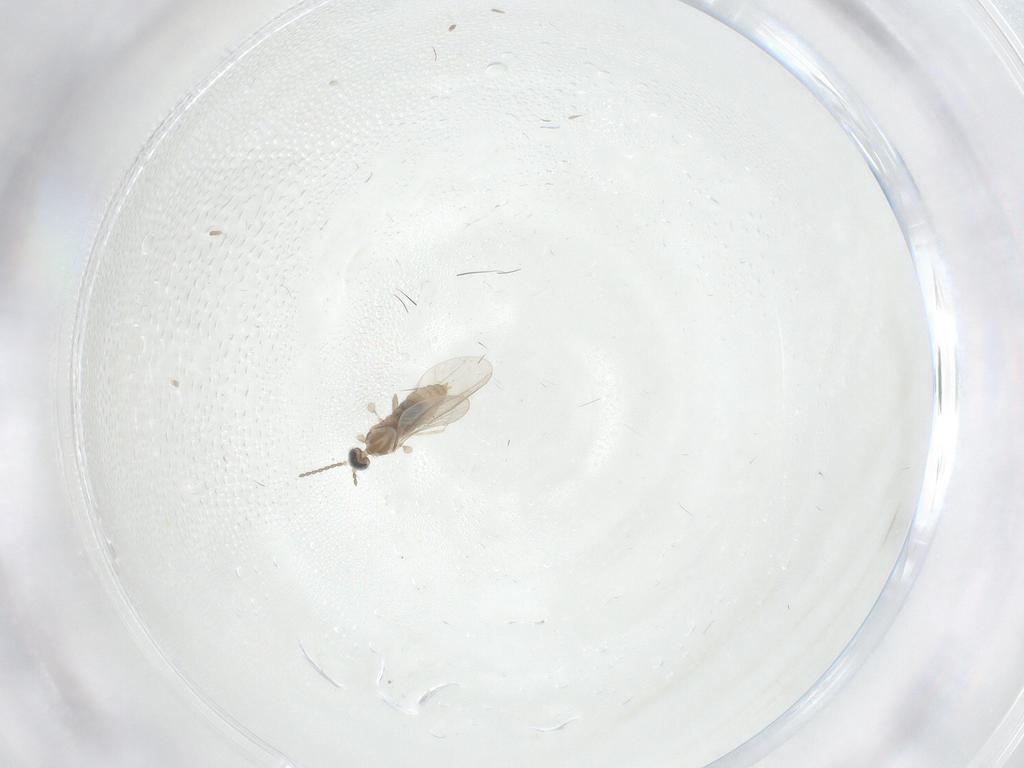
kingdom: Animalia
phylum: Arthropoda
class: Insecta
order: Diptera
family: Psychodidae
